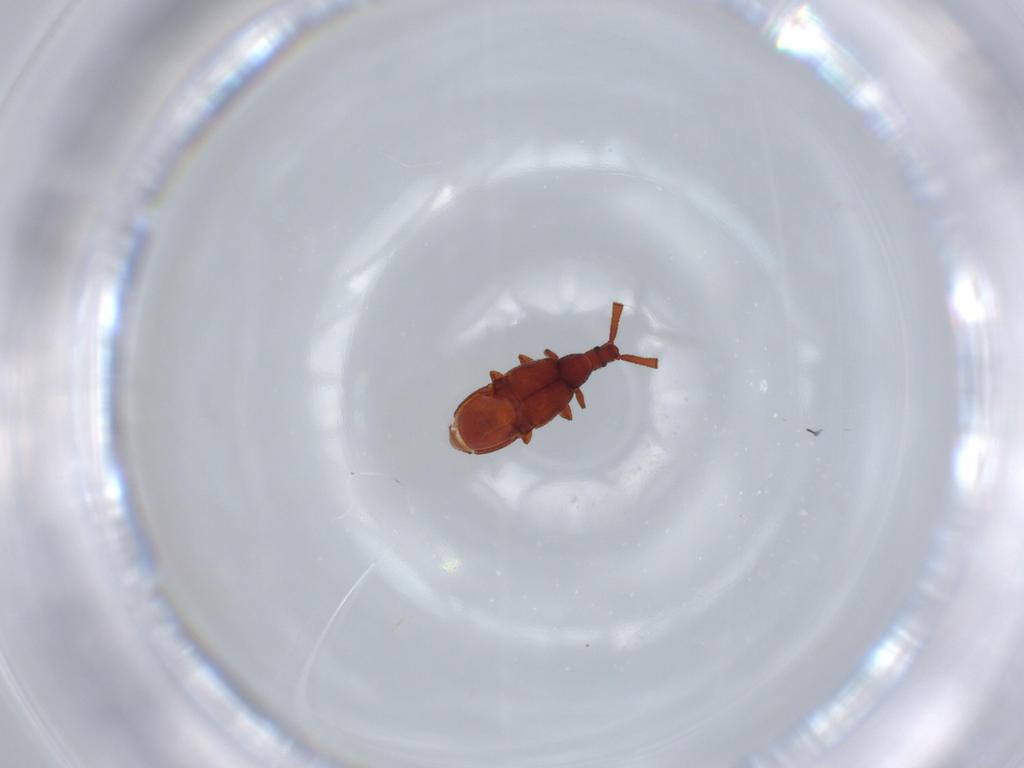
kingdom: Animalia
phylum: Arthropoda
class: Insecta
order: Coleoptera
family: Staphylinidae
